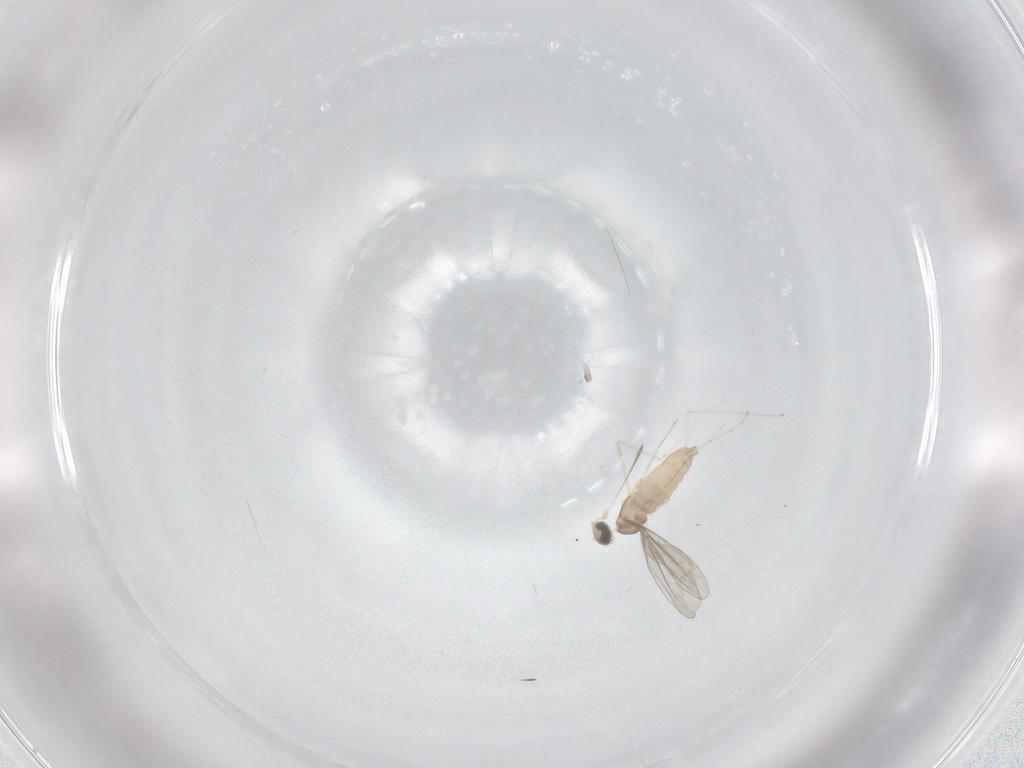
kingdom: Animalia
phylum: Arthropoda
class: Insecta
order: Diptera
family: Cecidomyiidae
